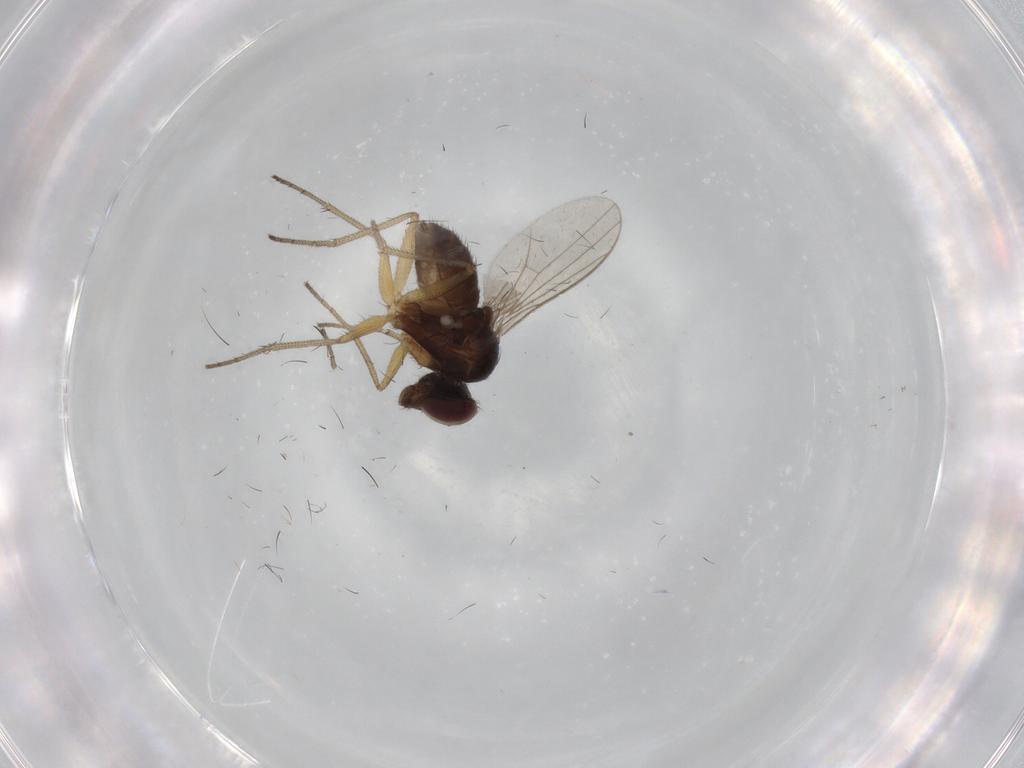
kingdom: Animalia
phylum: Arthropoda
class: Insecta
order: Diptera
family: Dolichopodidae
